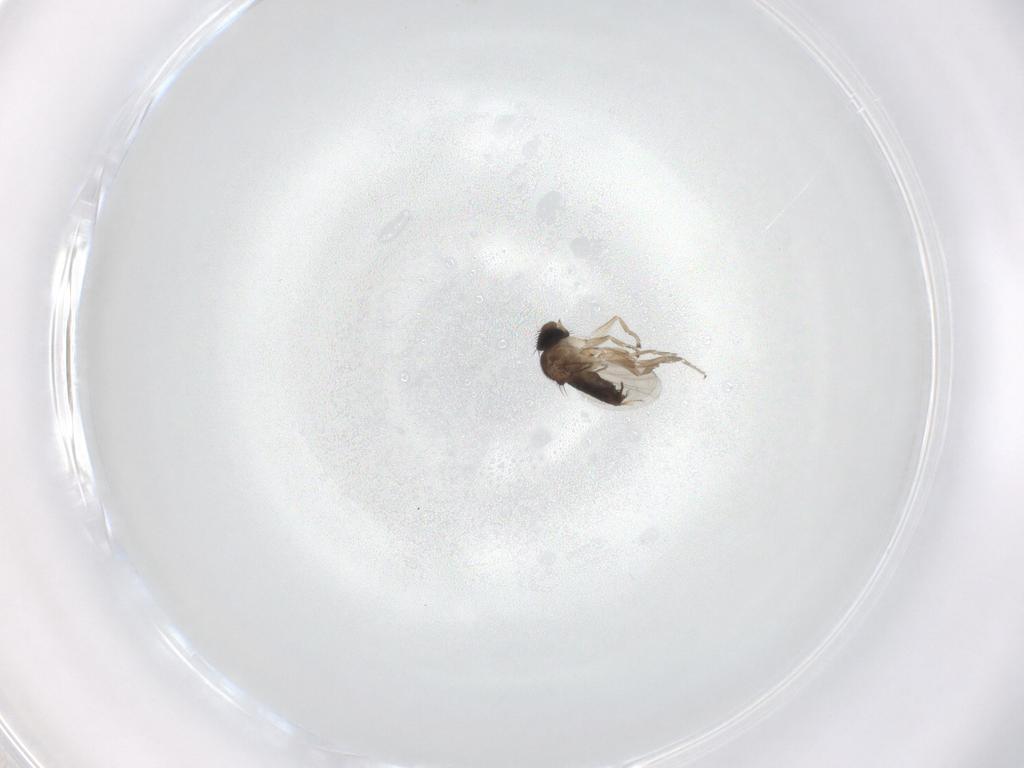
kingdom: Animalia
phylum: Arthropoda
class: Insecta
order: Diptera
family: Phoridae
